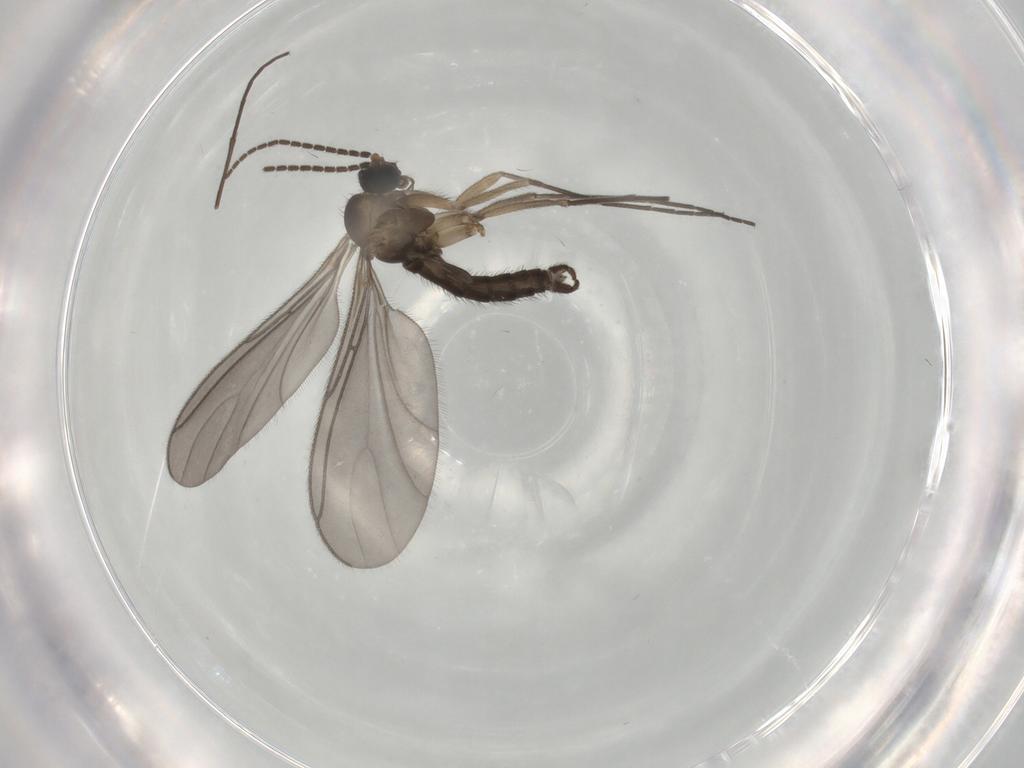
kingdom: Animalia
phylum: Arthropoda
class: Insecta
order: Diptera
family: Sciaridae
